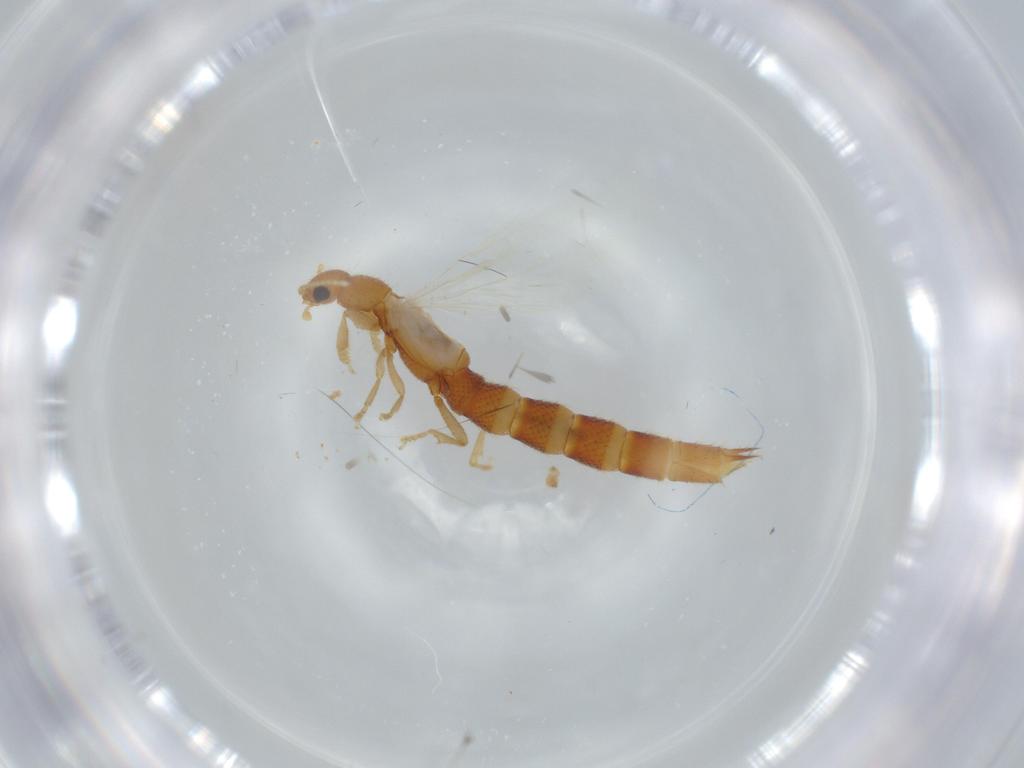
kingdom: Animalia
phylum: Arthropoda
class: Insecta
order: Coleoptera
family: Staphylinidae
